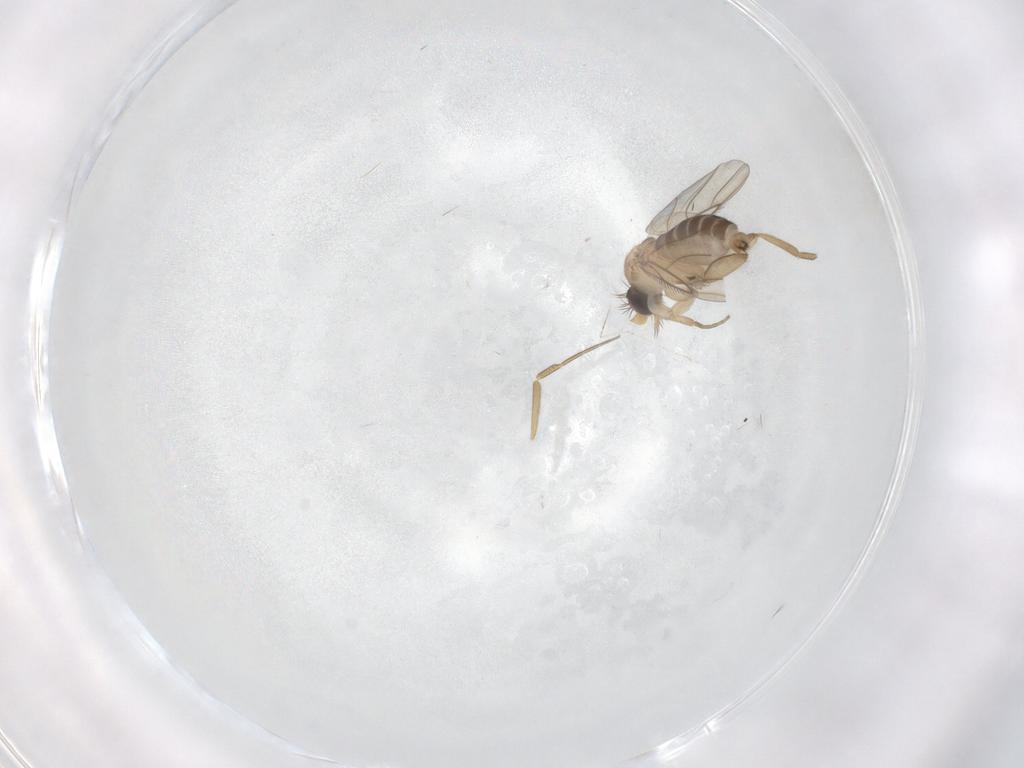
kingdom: Animalia
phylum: Arthropoda
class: Insecta
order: Diptera
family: Phoridae
